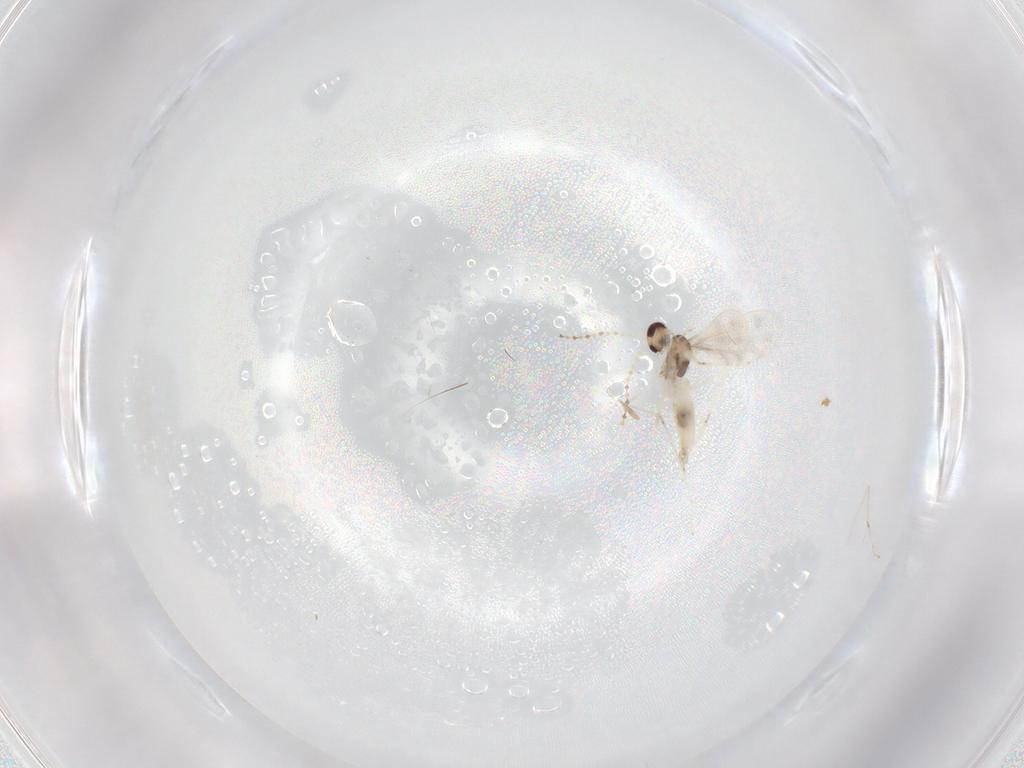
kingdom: Animalia
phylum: Arthropoda
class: Insecta
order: Diptera
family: Cecidomyiidae
